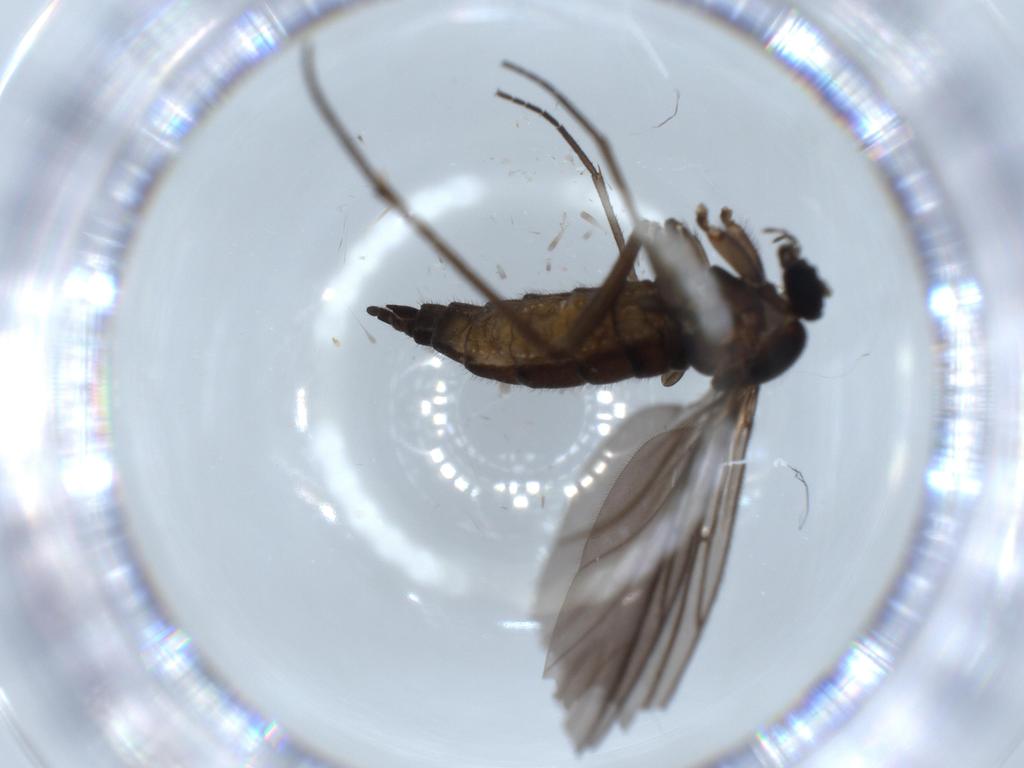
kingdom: Animalia
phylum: Arthropoda
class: Insecta
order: Diptera
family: Sciaridae
